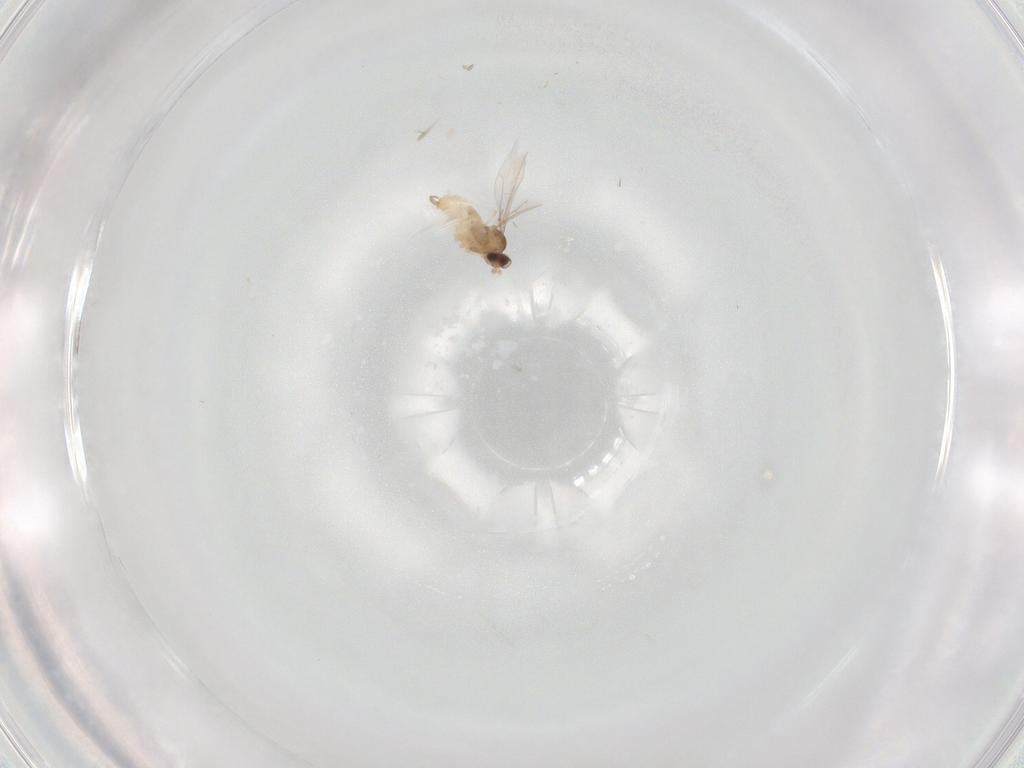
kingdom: Animalia
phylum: Arthropoda
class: Insecta
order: Diptera
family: Cecidomyiidae
